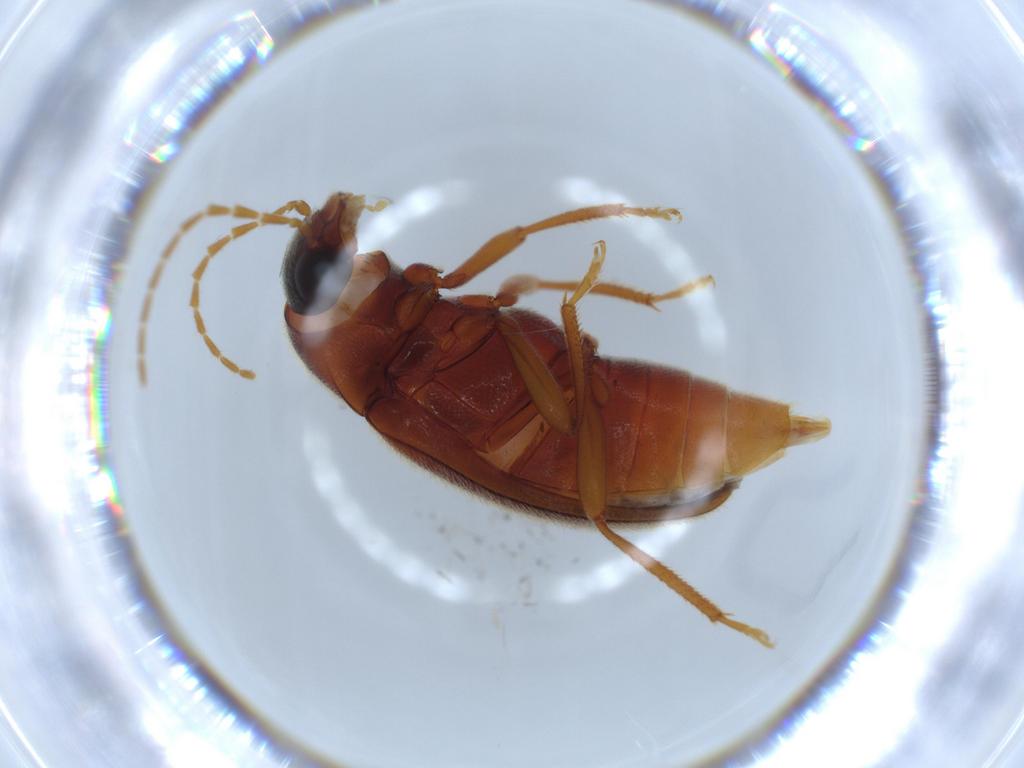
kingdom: Animalia
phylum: Arthropoda
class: Insecta
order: Coleoptera
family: Ptilodactylidae
